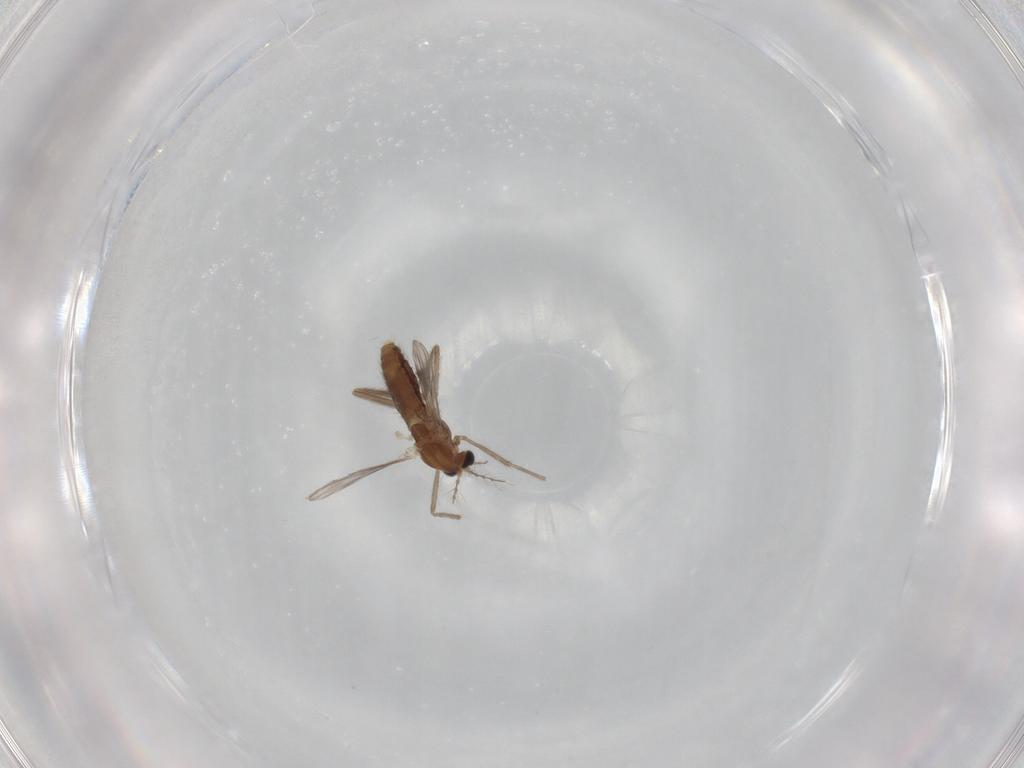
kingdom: Animalia
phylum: Arthropoda
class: Insecta
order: Diptera
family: Chironomidae
